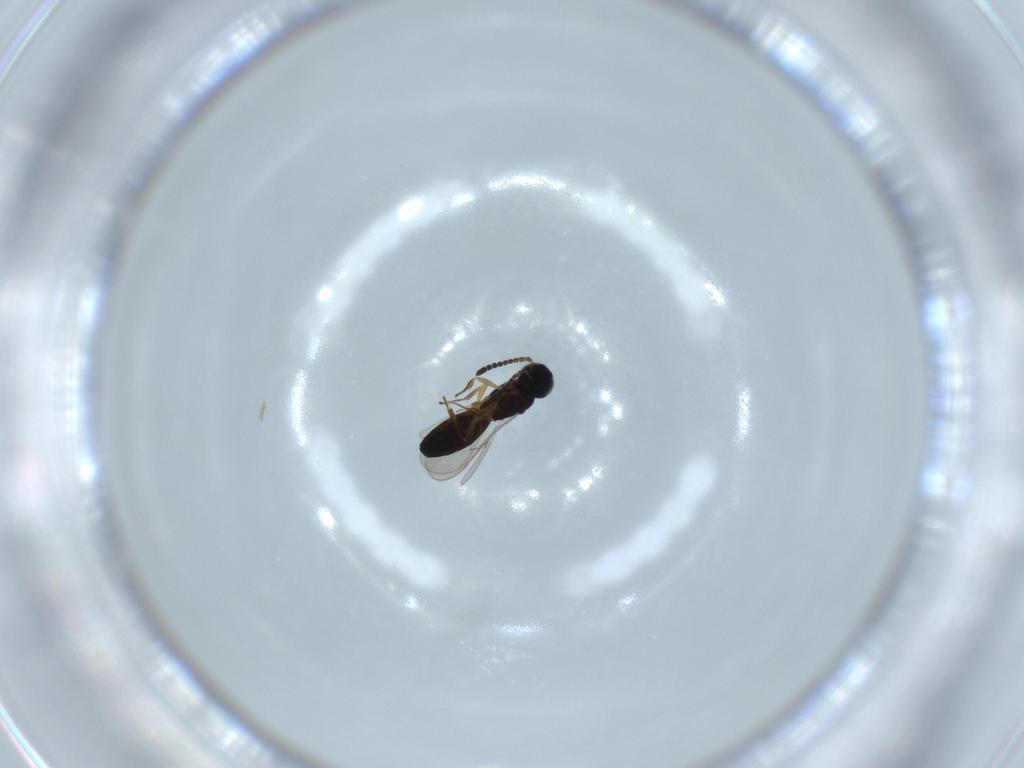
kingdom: Animalia
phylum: Arthropoda
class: Insecta
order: Hymenoptera
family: Scelionidae
